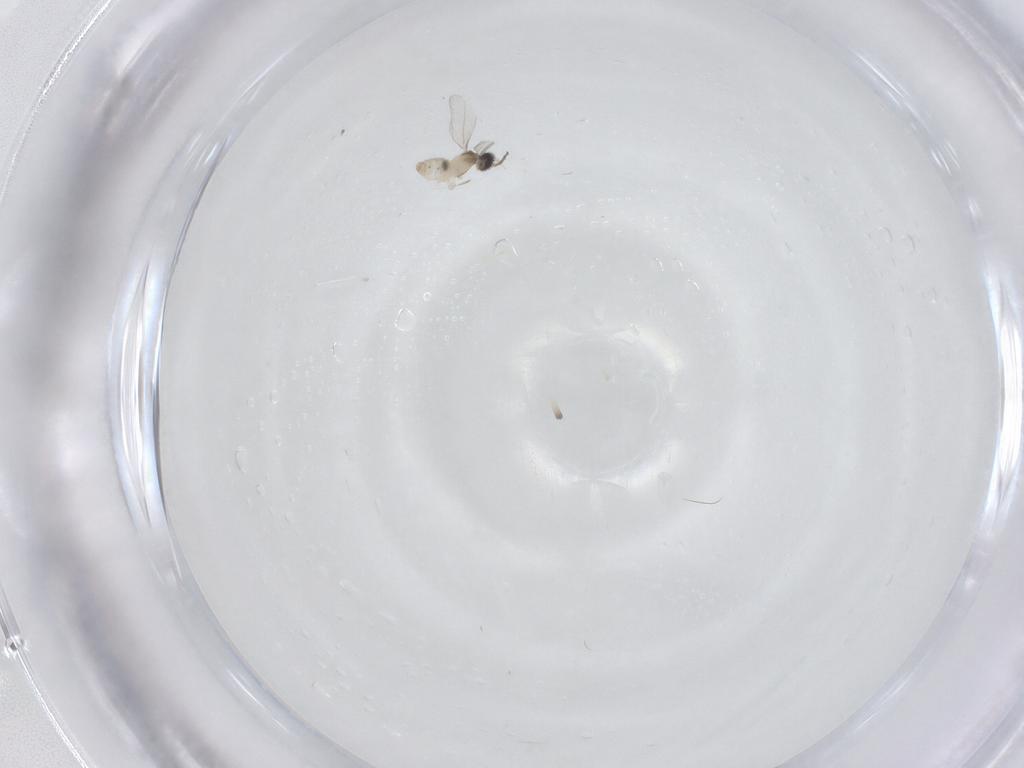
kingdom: Animalia
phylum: Arthropoda
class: Insecta
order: Diptera
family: Cecidomyiidae
